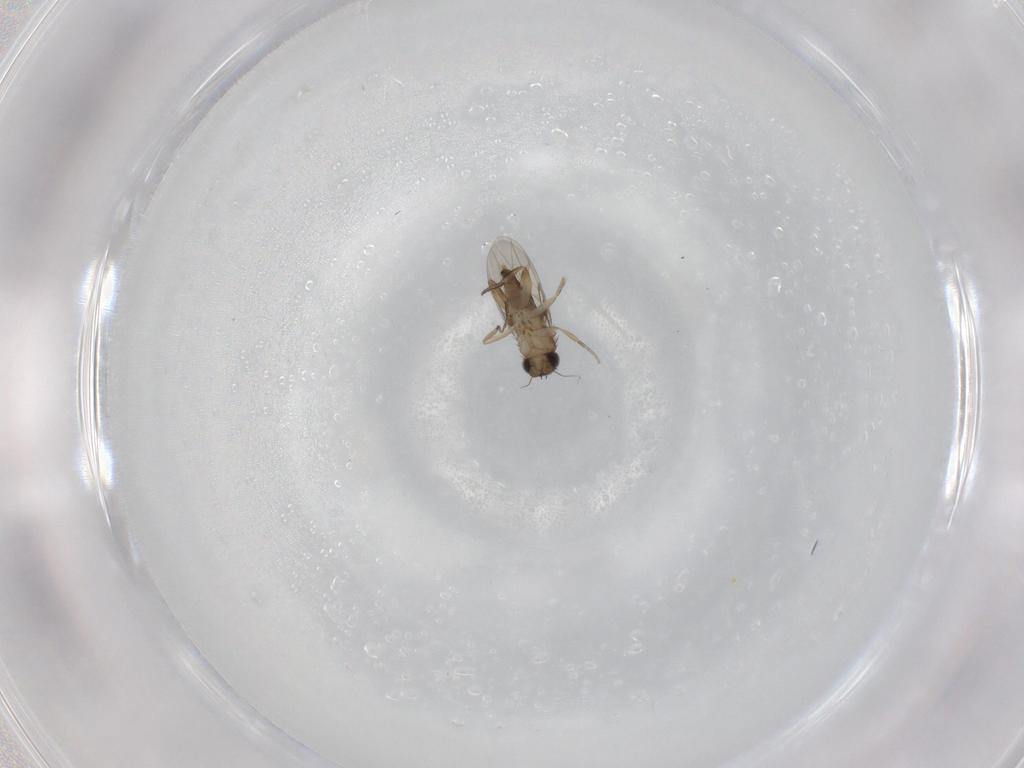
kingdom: Animalia
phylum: Arthropoda
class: Insecta
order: Diptera
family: Phoridae
